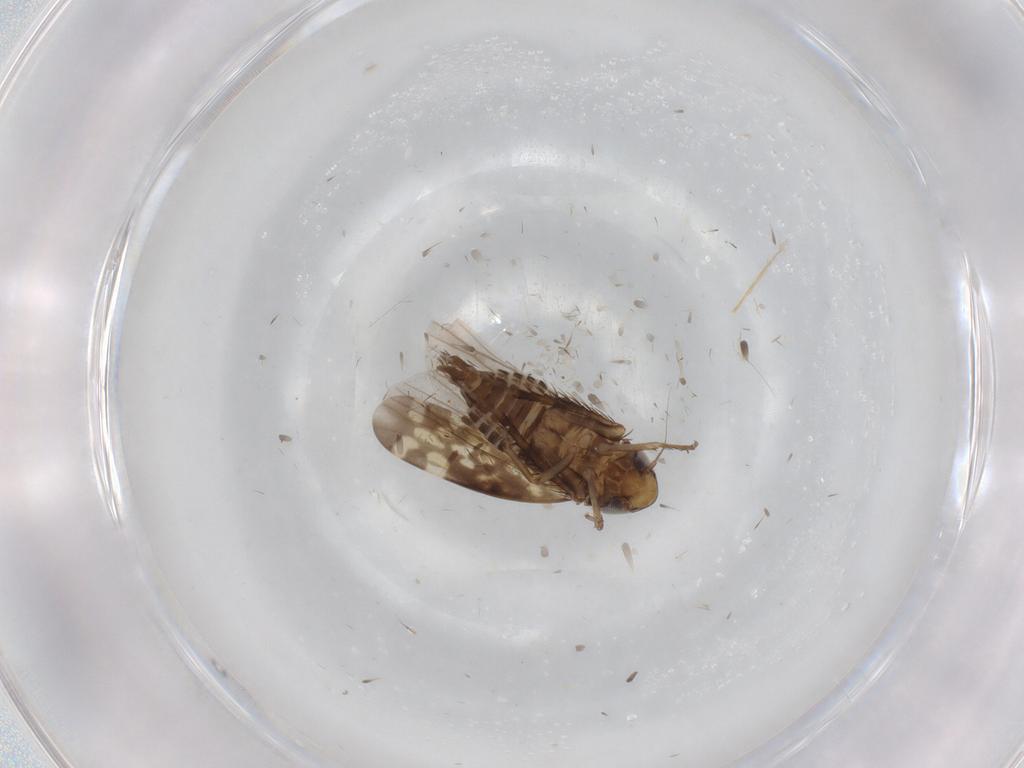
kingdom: Animalia
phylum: Arthropoda
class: Insecta
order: Hemiptera
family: Cicadellidae
